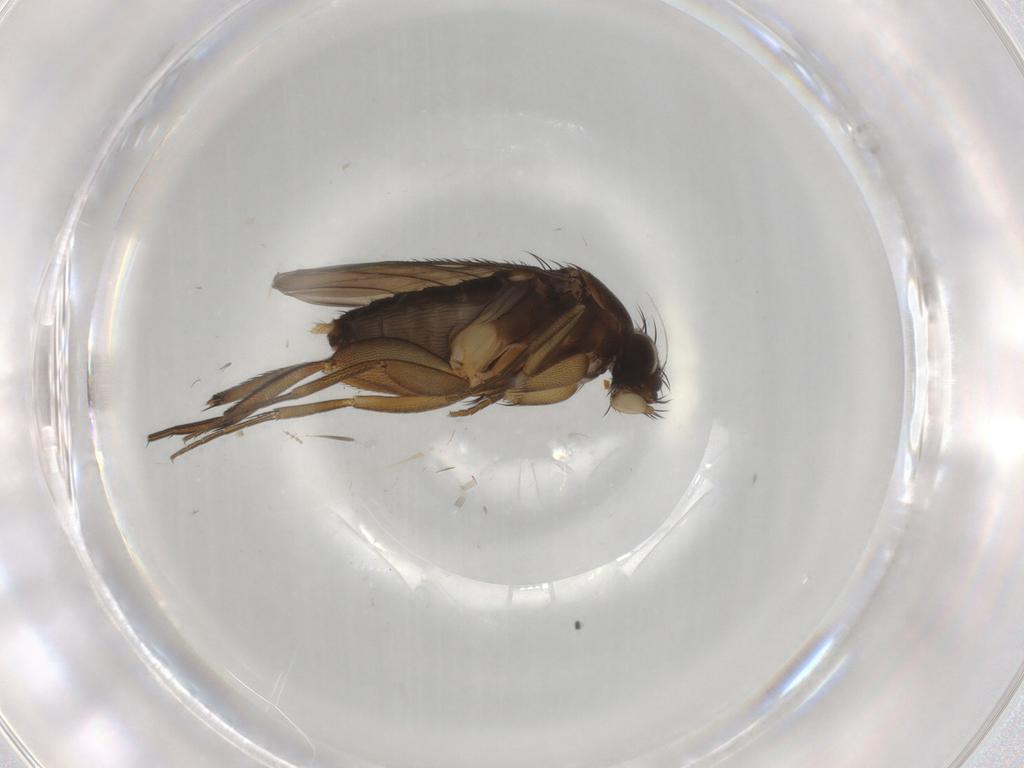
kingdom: Animalia
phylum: Arthropoda
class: Insecta
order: Diptera
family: Phoridae
